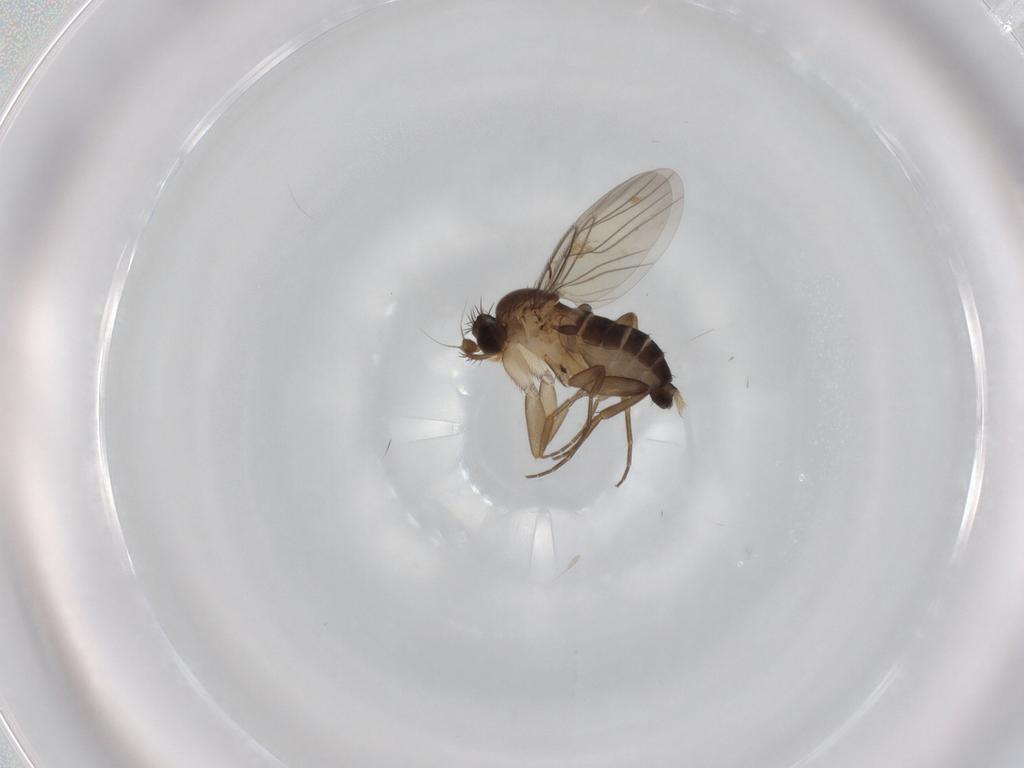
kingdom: Animalia
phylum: Arthropoda
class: Insecta
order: Diptera
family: Phoridae
